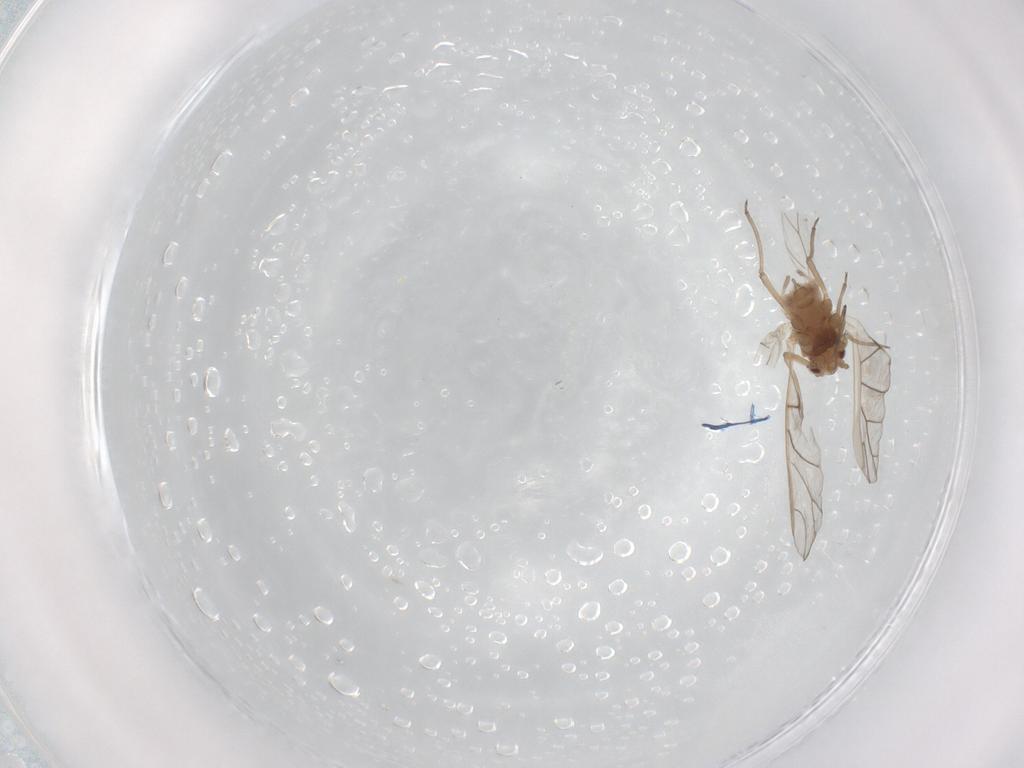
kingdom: Animalia
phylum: Arthropoda
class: Insecta
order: Hemiptera
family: Aphididae
